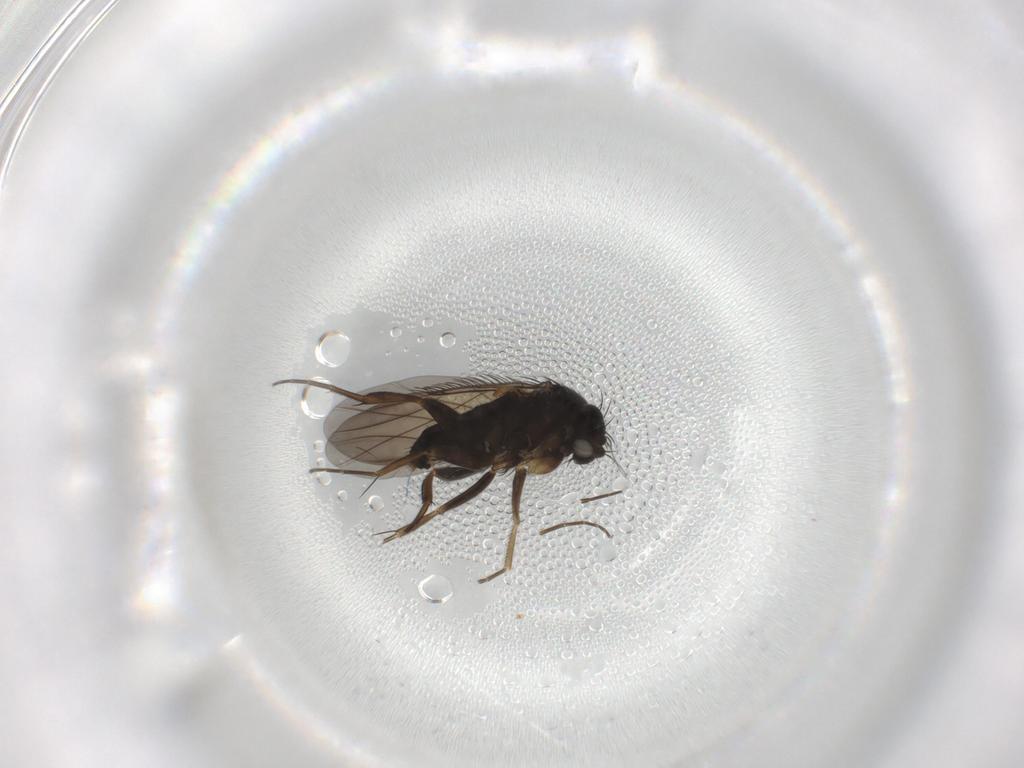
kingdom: Animalia
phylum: Arthropoda
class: Insecta
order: Diptera
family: Phoridae
